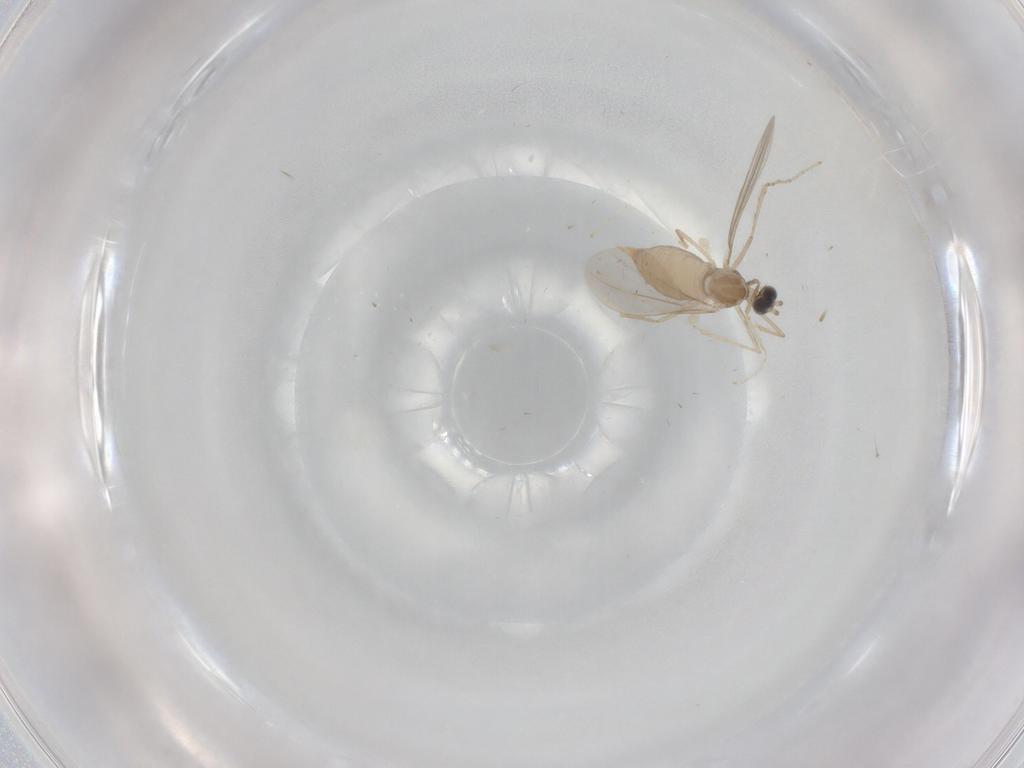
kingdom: Animalia
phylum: Arthropoda
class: Insecta
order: Diptera
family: Cecidomyiidae
